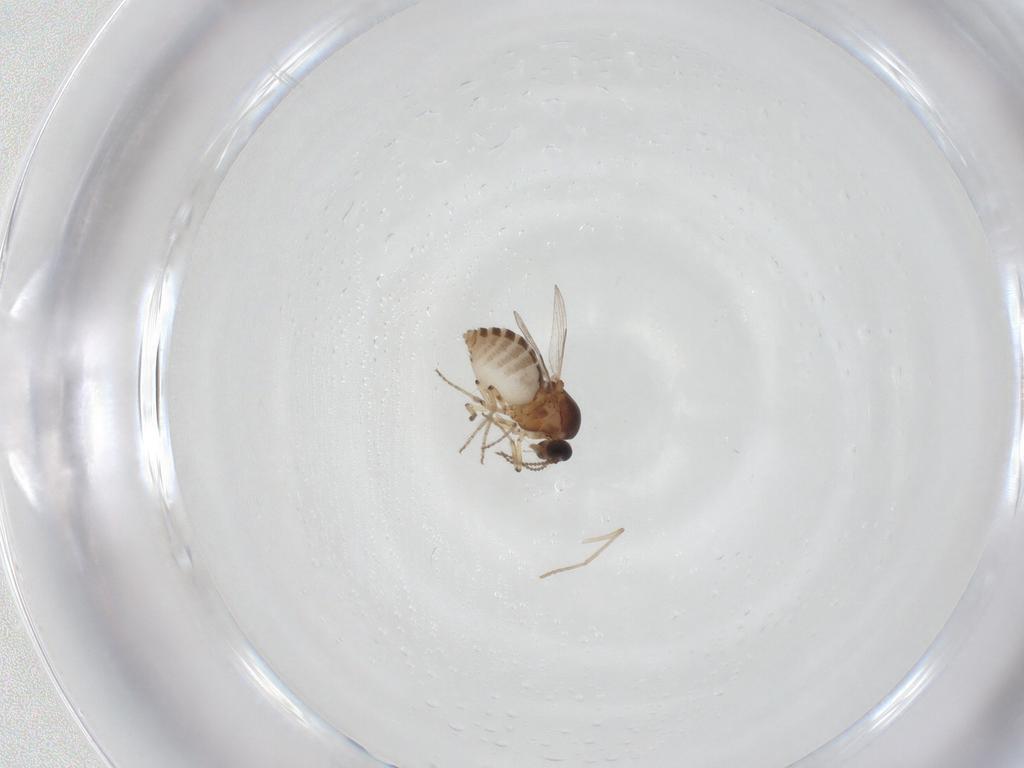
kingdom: Animalia
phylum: Arthropoda
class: Insecta
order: Diptera
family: Psychodidae
